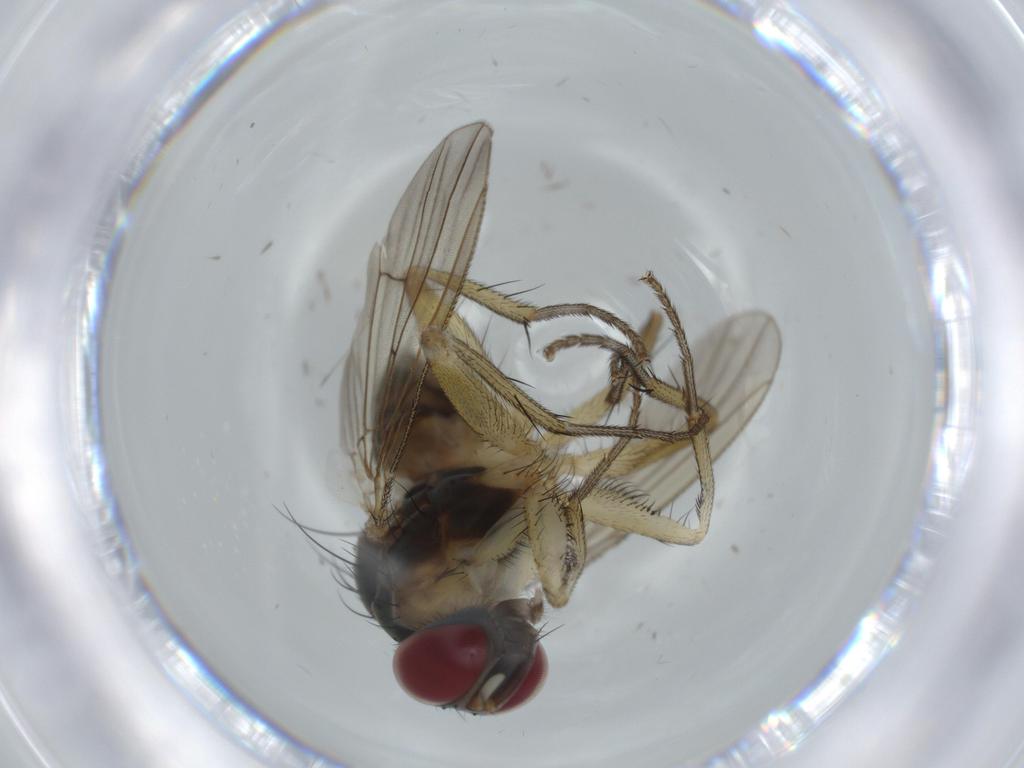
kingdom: Animalia
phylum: Arthropoda
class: Insecta
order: Diptera
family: Muscidae
